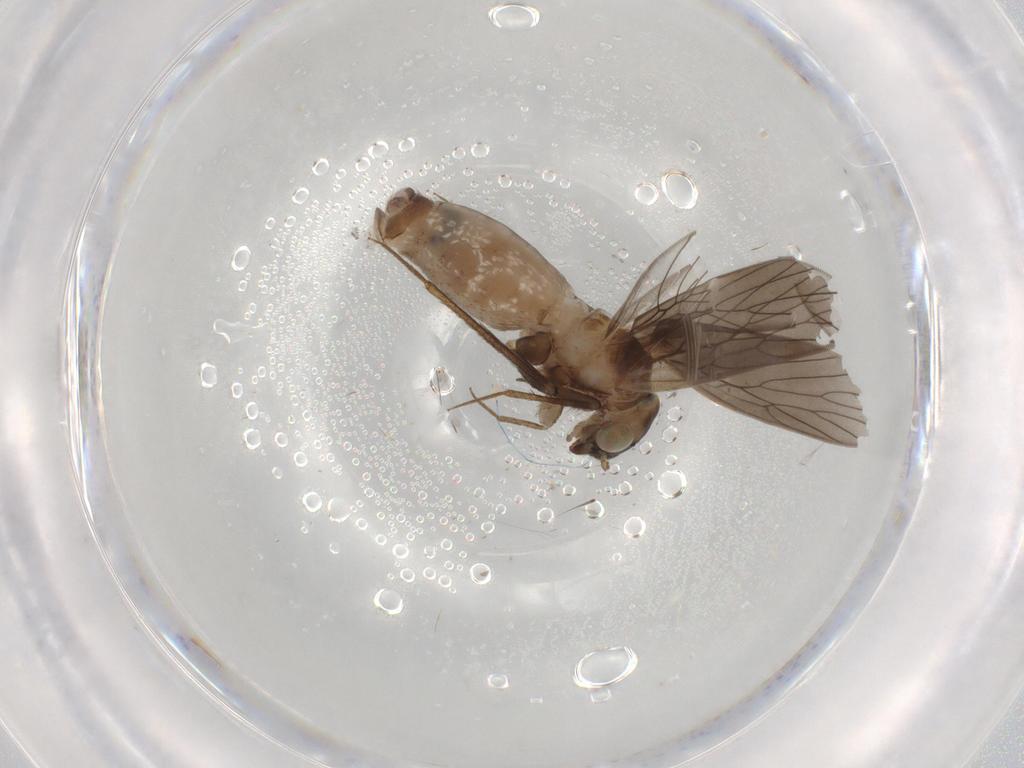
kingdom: Animalia
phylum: Arthropoda
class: Insecta
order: Psocodea
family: Lepidopsocidae
